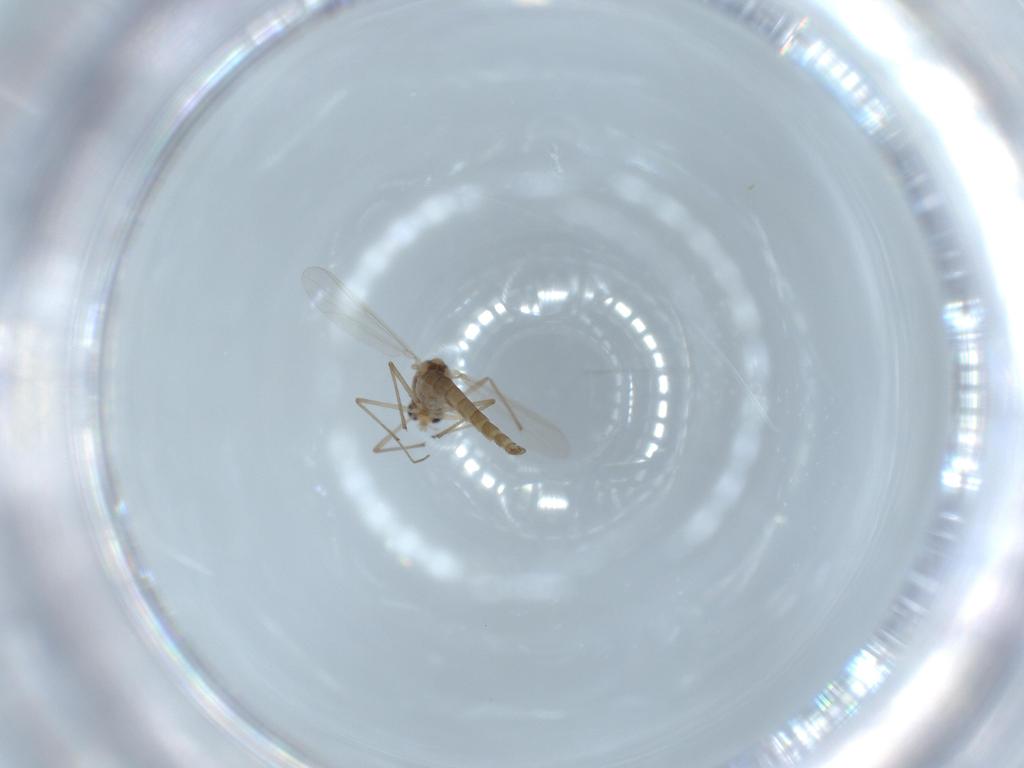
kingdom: Animalia
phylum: Arthropoda
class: Insecta
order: Diptera
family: Chironomidae
